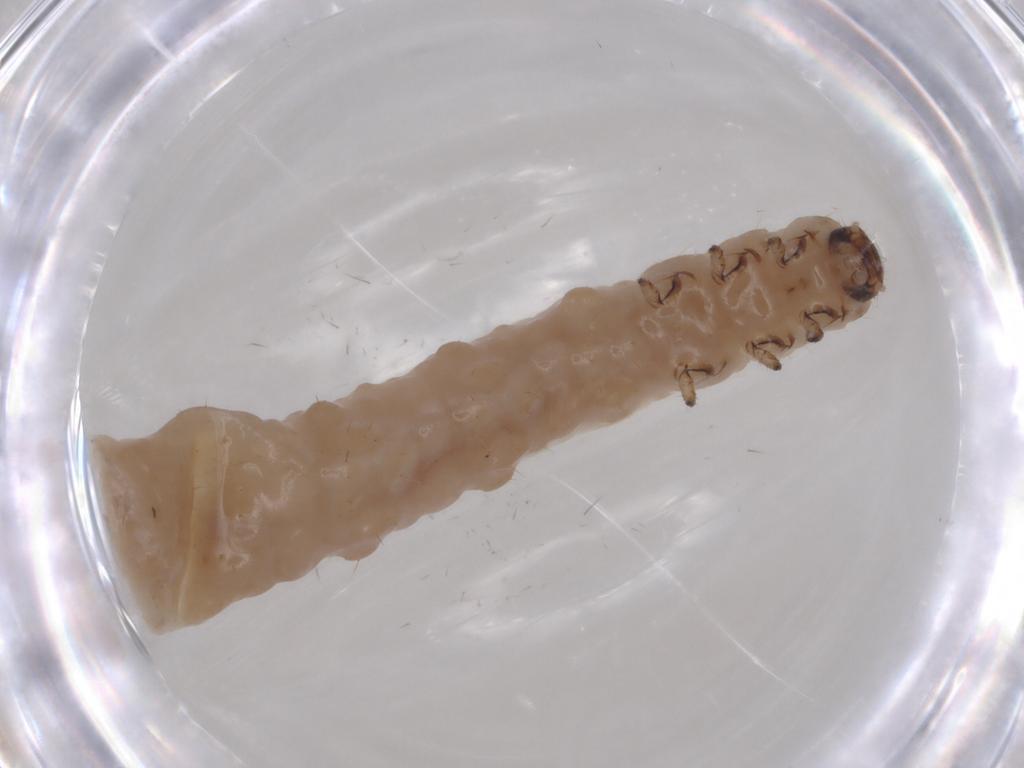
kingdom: Animalia
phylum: Arthropoda
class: Insecta
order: Coleoptera
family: Chrysomelidae
